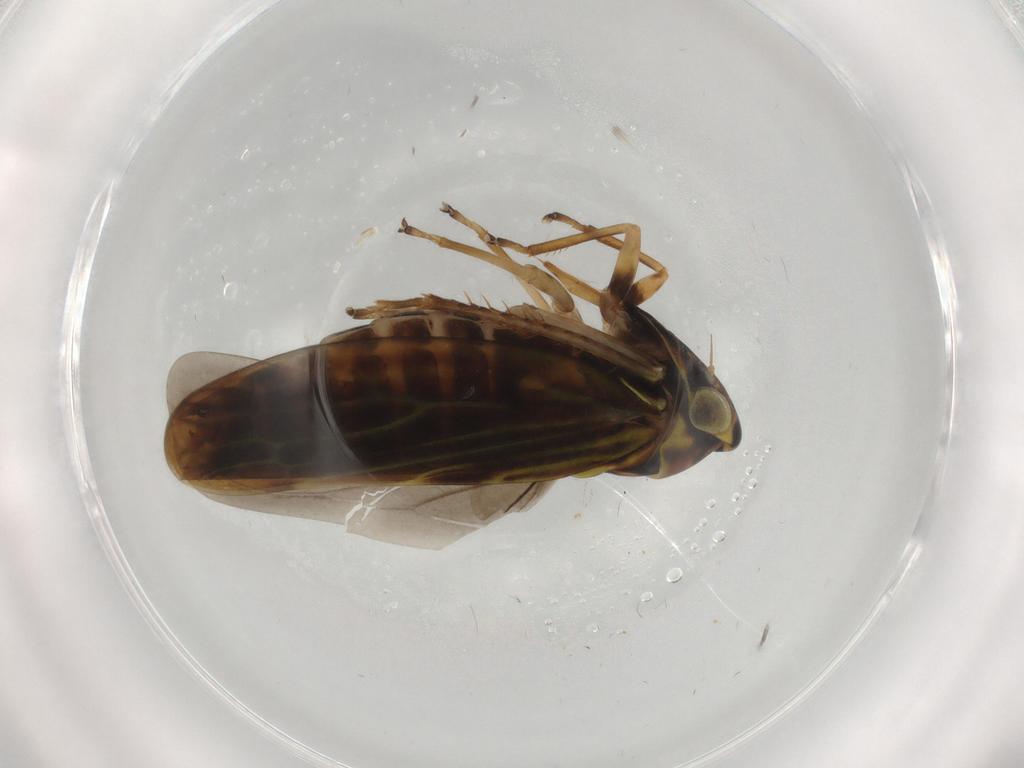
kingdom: Animalia
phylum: Arthropoda
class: Insecta
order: Hemiptera
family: Cicadellidae
